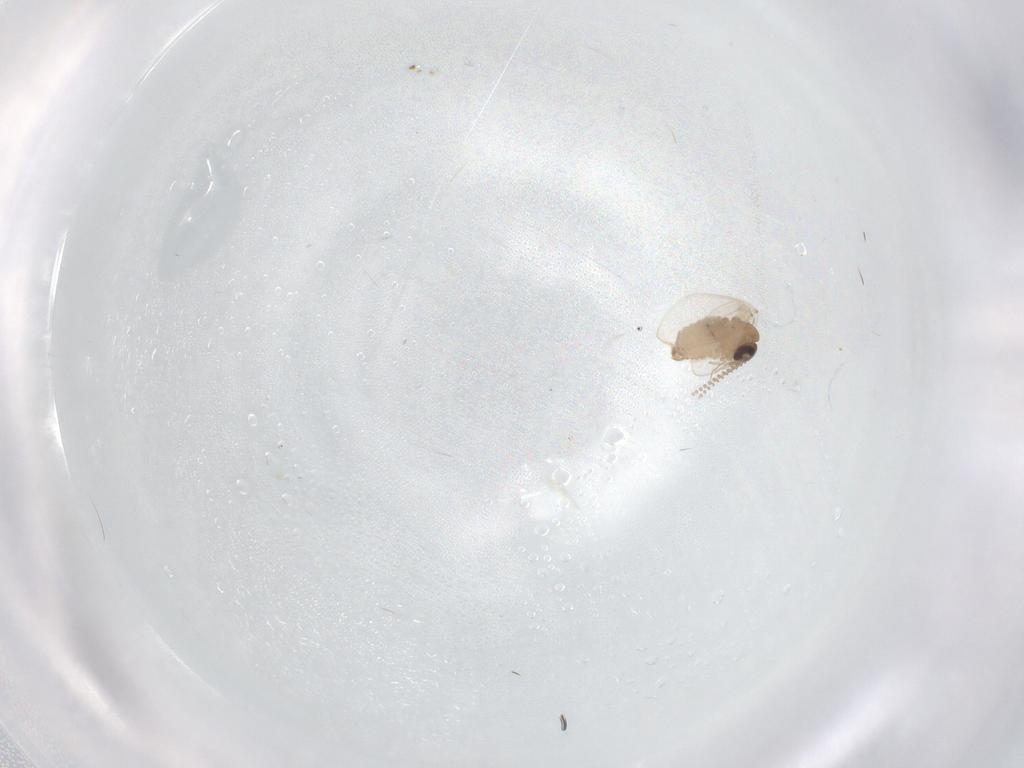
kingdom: Animalia
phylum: Arthropoda
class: Insecta
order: Diptera
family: Psychodidae
